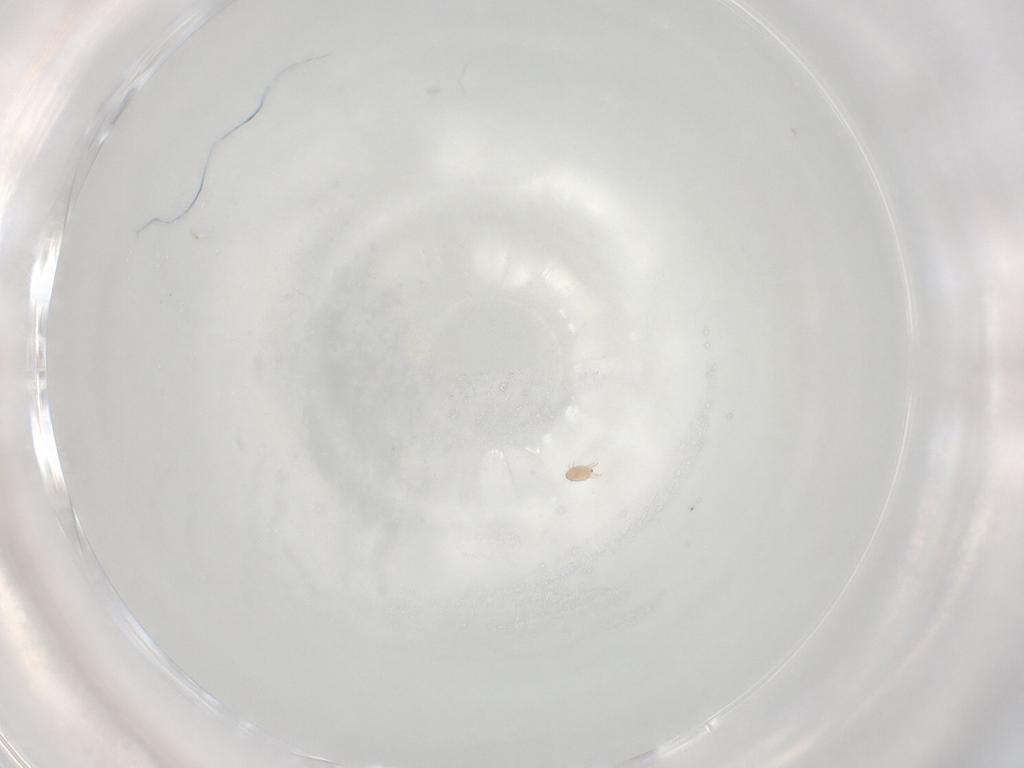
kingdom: Animalia
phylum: Arthropoda
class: Arachnida
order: Sarcoptiformes
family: Hemisarcoptidae
